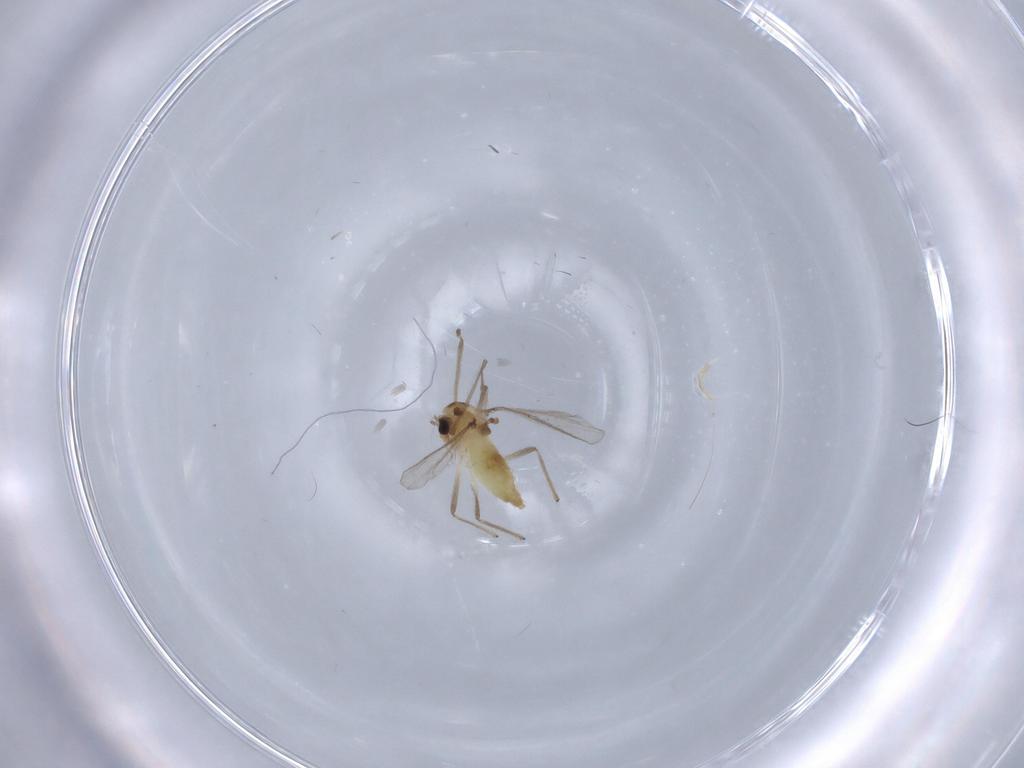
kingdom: Animalia
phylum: Arthropoda
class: Insecta
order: Diptera
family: Chironomidae
